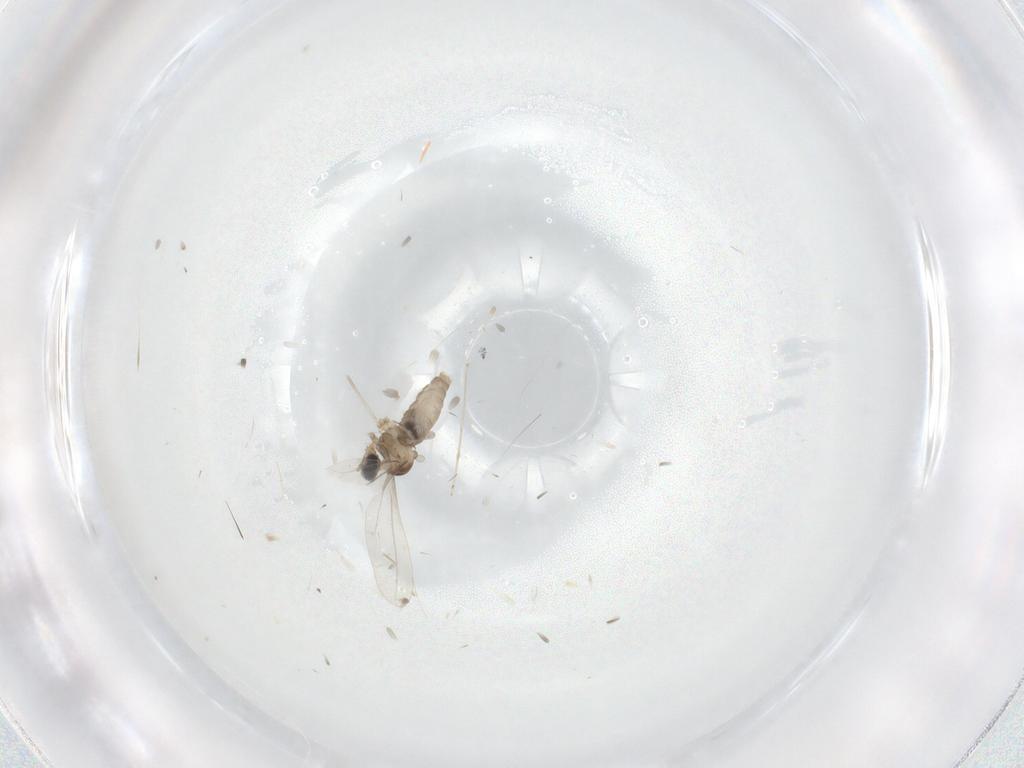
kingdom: Animalia
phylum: Arthropoda
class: Insecta
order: Diptera
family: Cecidomyiidae
